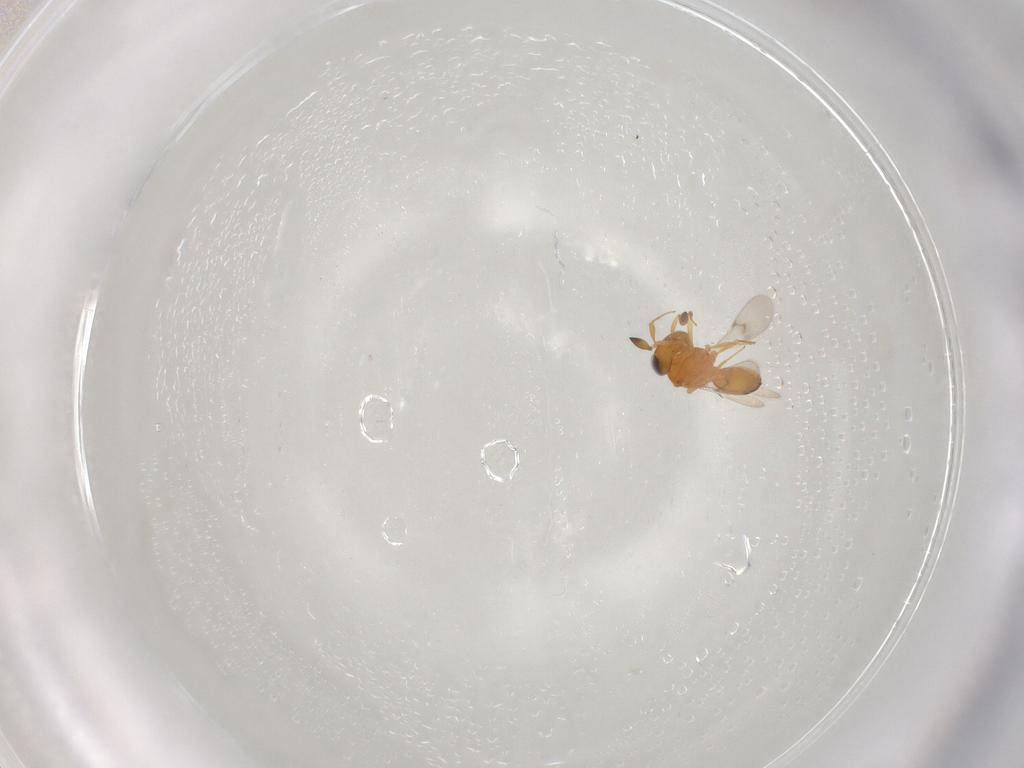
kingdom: Animalia
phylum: Arthropoda
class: Insecta
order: Hymenoptera
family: Scelionidae
